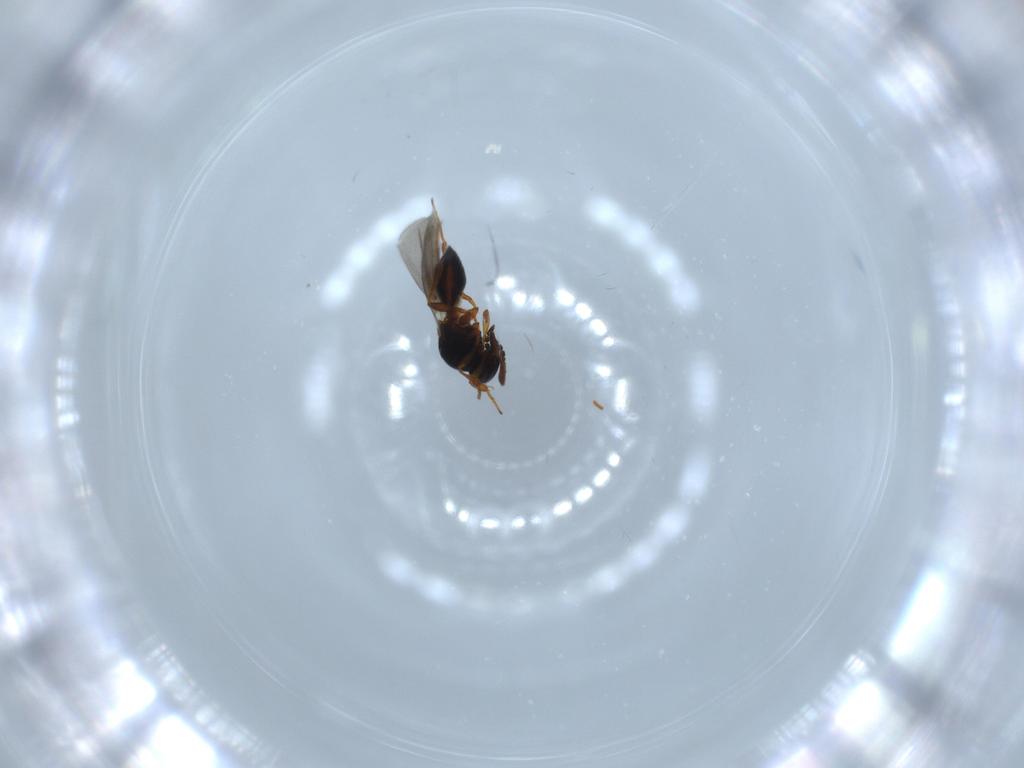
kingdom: Animalia
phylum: Arthropoda
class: Insecta
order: Hymenoptera
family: Platygastridae
